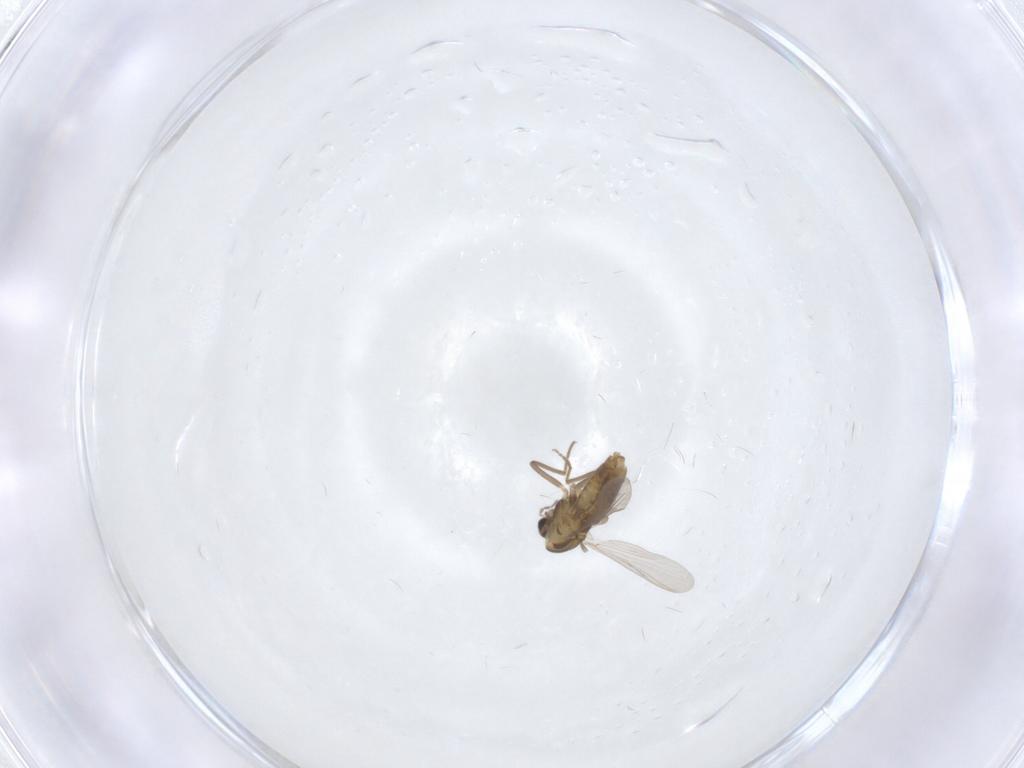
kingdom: Animalia
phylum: Arthropoda
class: Insecta
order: Diptera
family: Chironomidae
